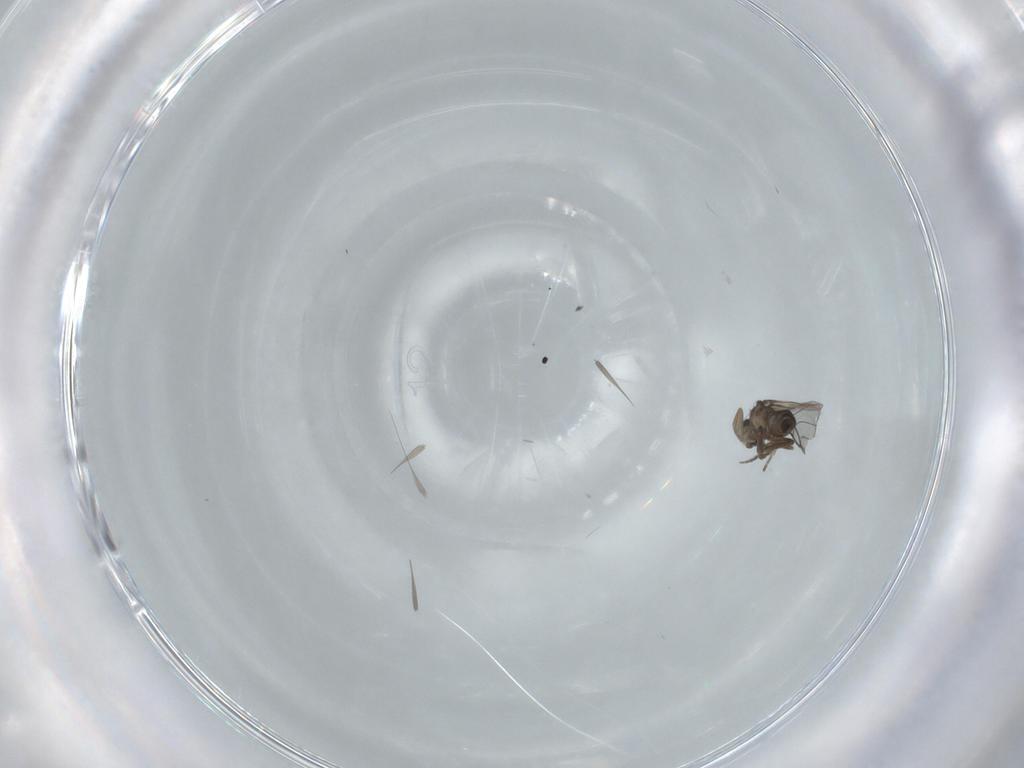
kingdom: Animalia
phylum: Arthropoda
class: Insecta
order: Diptera
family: Phoridae
